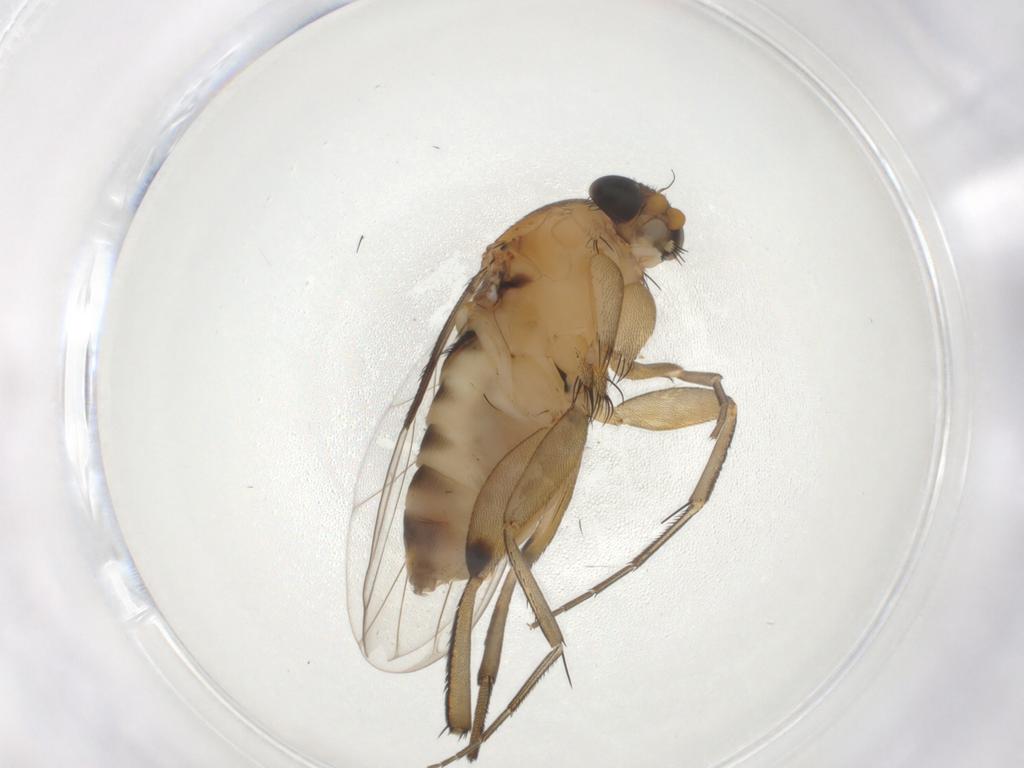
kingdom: Animalia
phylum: Arthropoda
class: Insecta
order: Diptera
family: Phoridae
